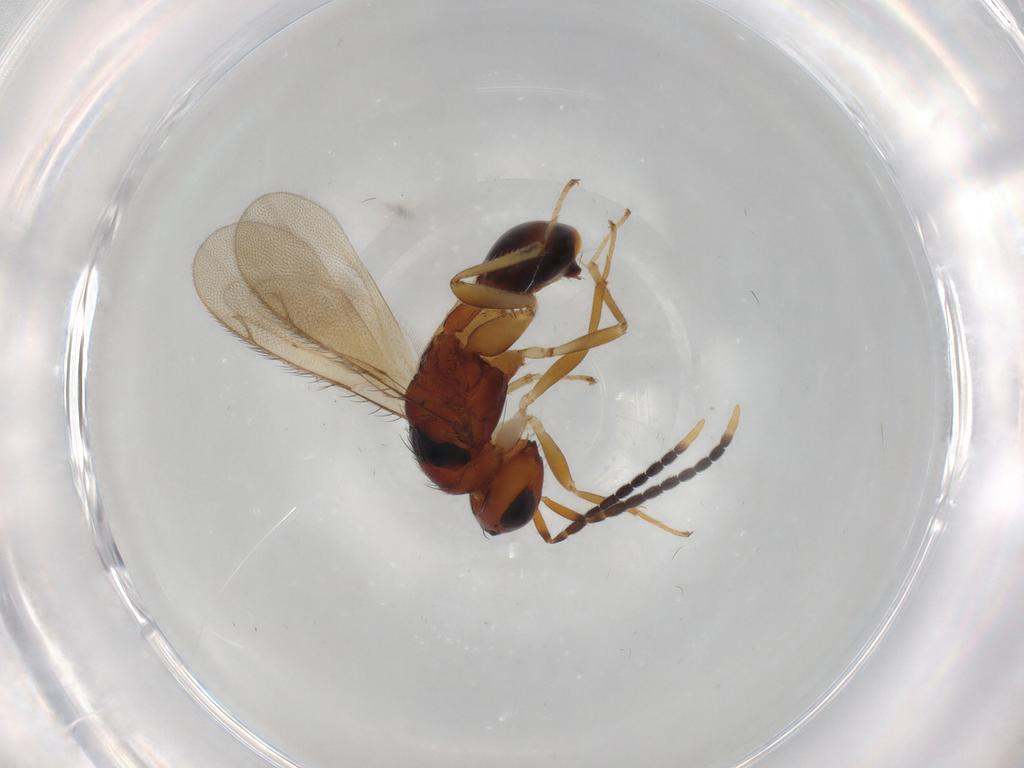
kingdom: Animalia
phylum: Arthropoda
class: Insecta
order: Hymenoptera
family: Aphelinidae
